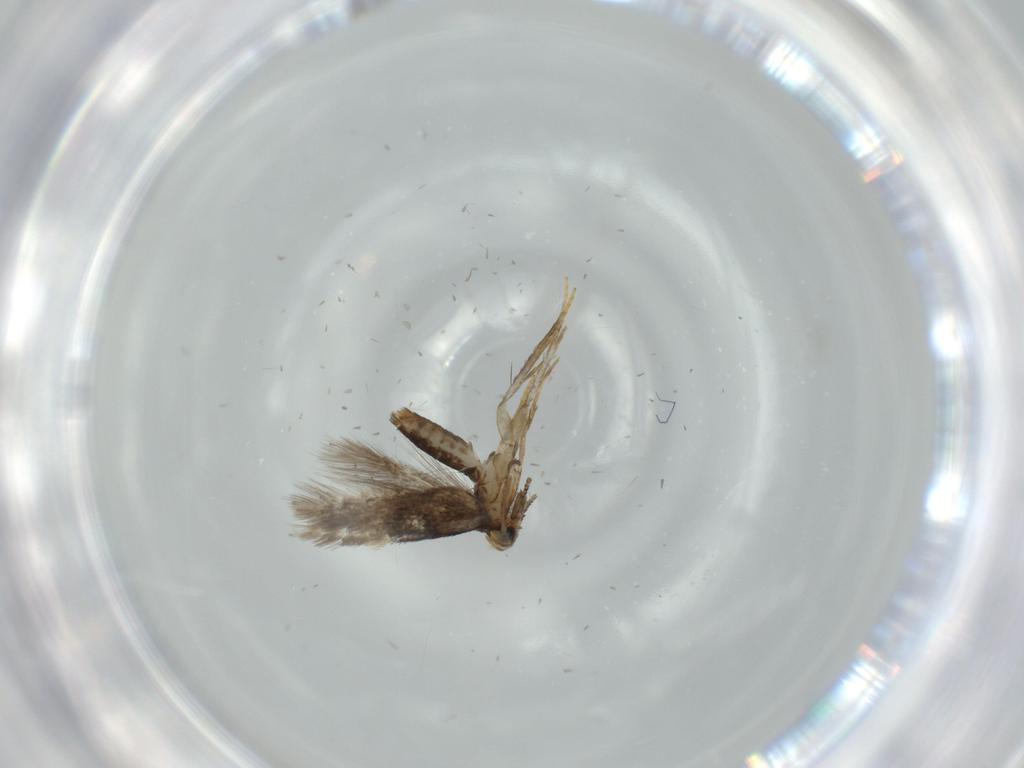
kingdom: Animalia
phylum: Arthropoda
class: Insecta
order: Lepidoptera
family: Nepticulidae
